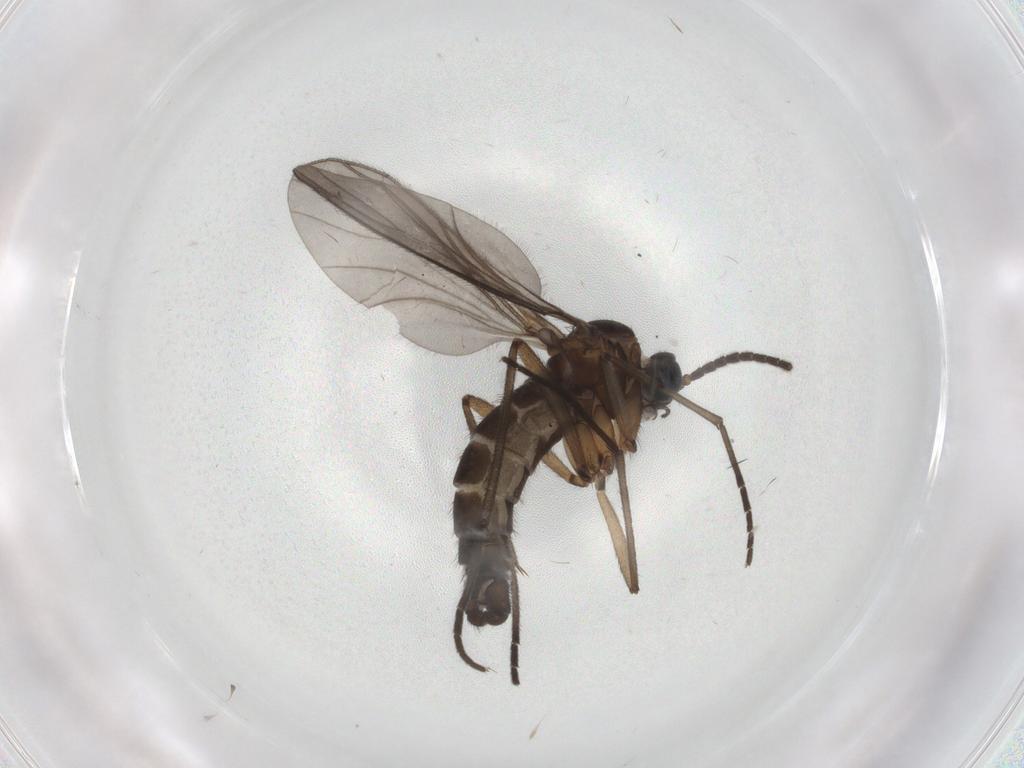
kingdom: Animalia
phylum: Arthropoda
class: Insecta
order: Diptera
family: Sciaridae
